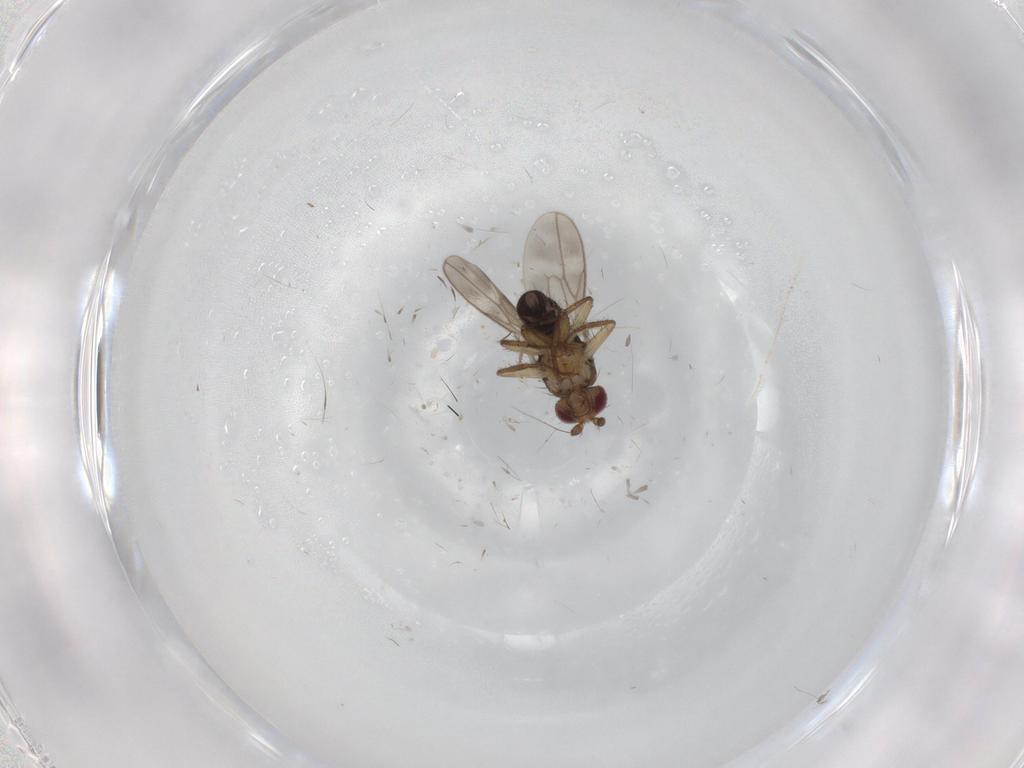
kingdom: Animalia
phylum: Arthropoda
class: Insecta
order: Diptera
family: Sphaeroceridae
